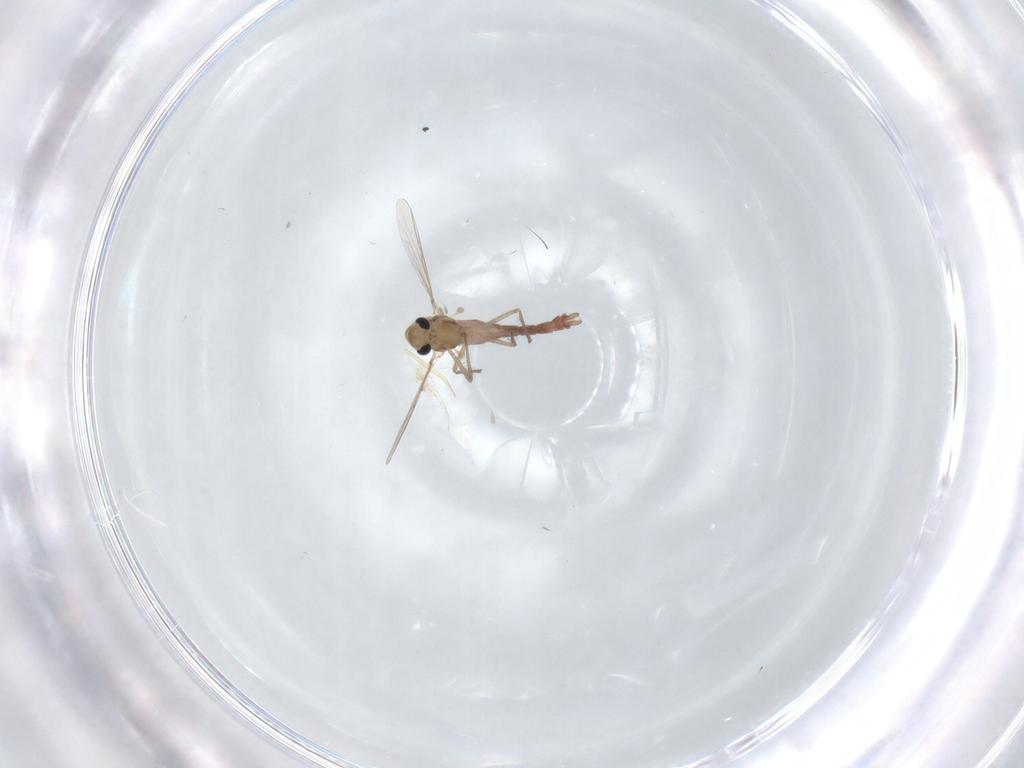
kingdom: Animalia
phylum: Arthropoda
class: Insecta
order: Diptera
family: Chironomidae
